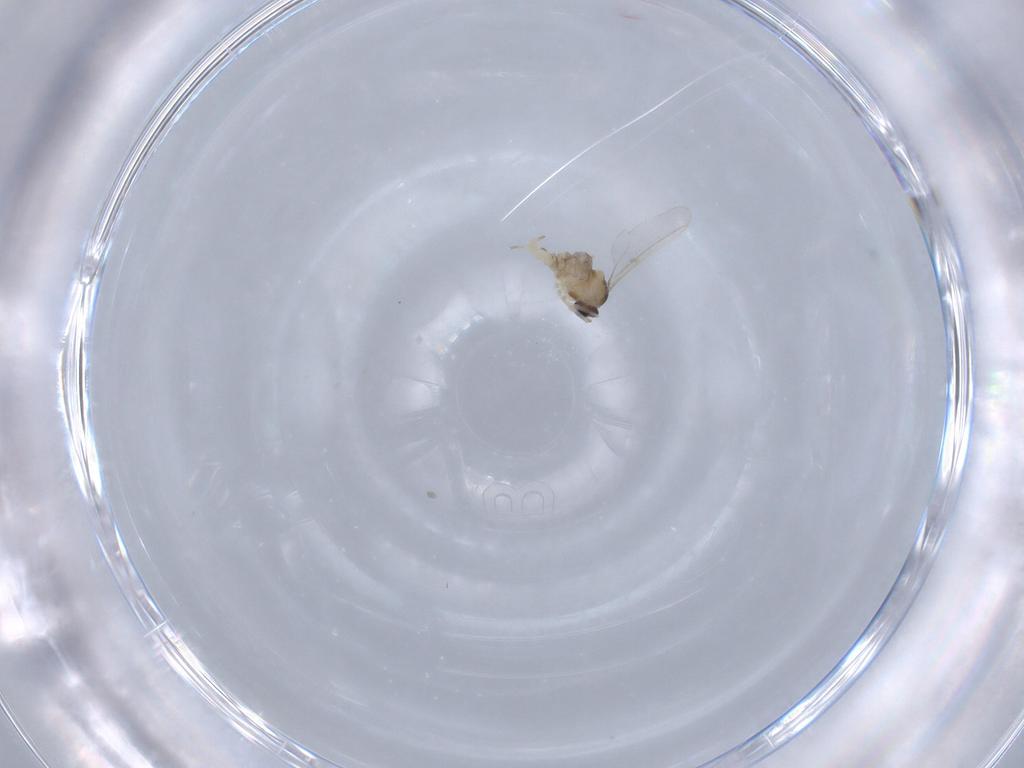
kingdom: Animalia
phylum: Arthropoda
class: Insecta
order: Diptera
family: Cecidomyiidae
